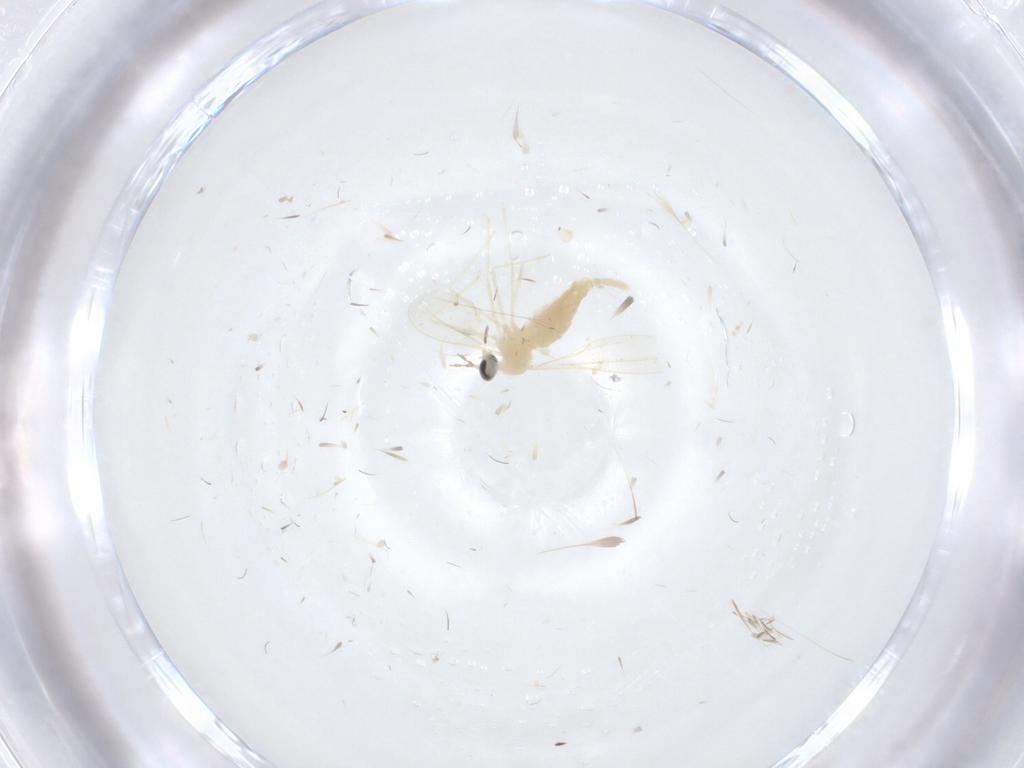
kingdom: Animalia
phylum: Arthropoda
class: Insecta
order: Diptera
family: Cecidomyiidae
